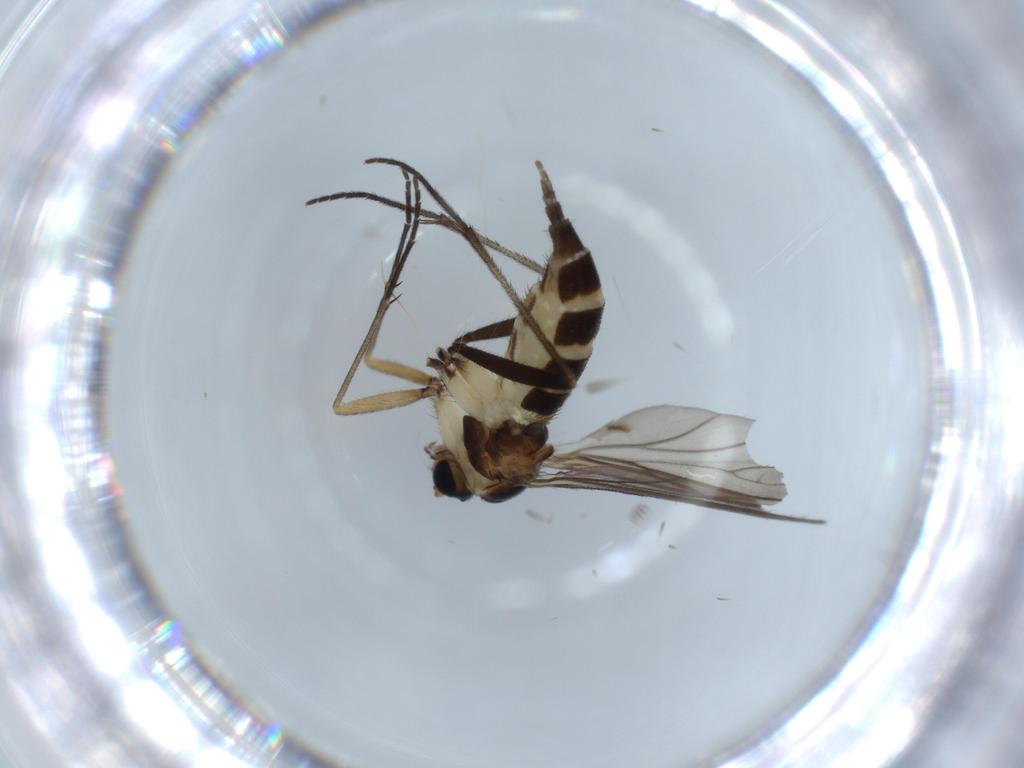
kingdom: Animalia
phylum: Arthropoda
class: Insecta
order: Diptera
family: Sciaridae
